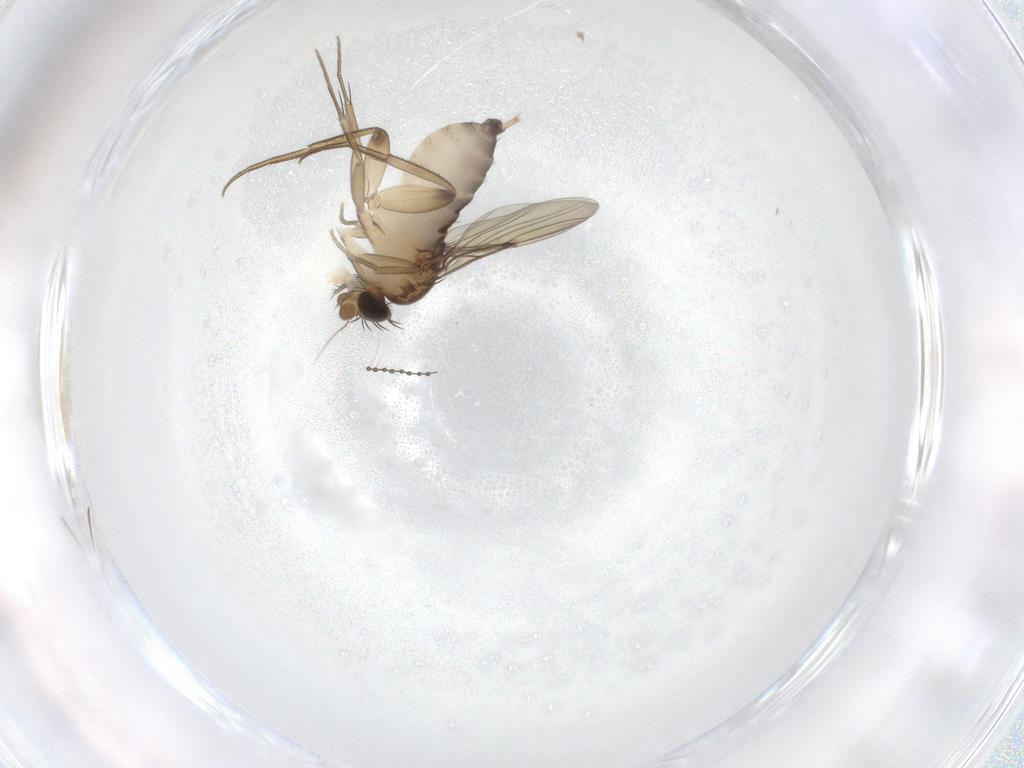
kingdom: Animalia
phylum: Arthropoda
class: Insecta
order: Diptera
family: Phoridae
